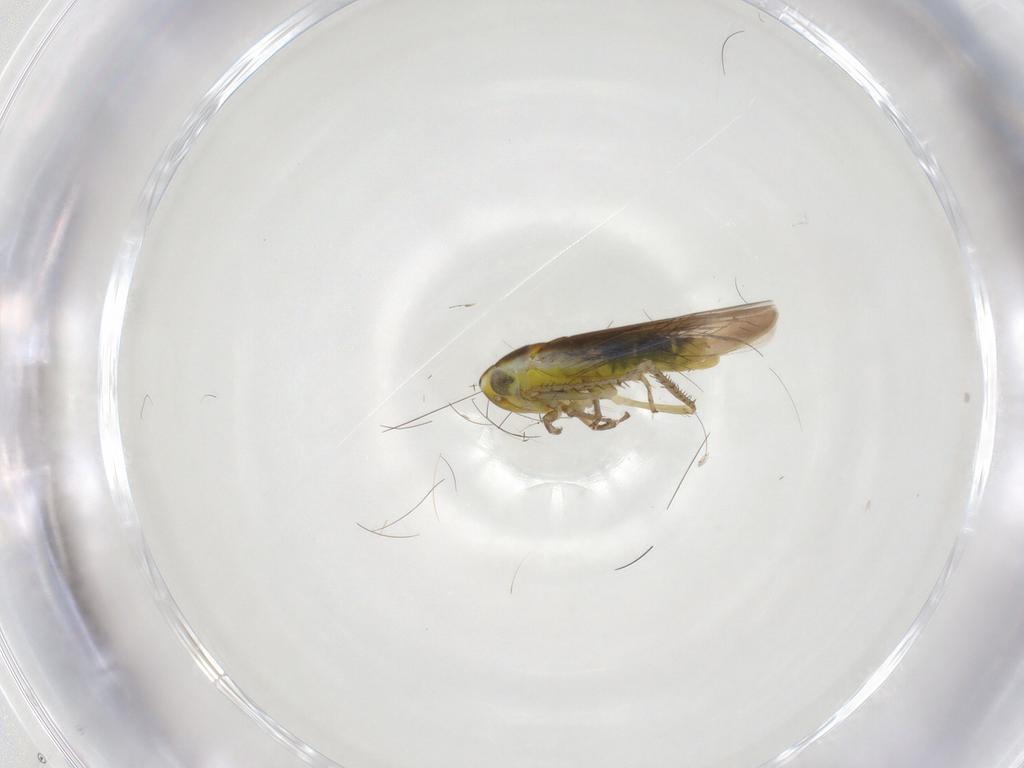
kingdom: Animalia
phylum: Arthropoda
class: Insecta
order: Hemiptera
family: Cicadellidae
